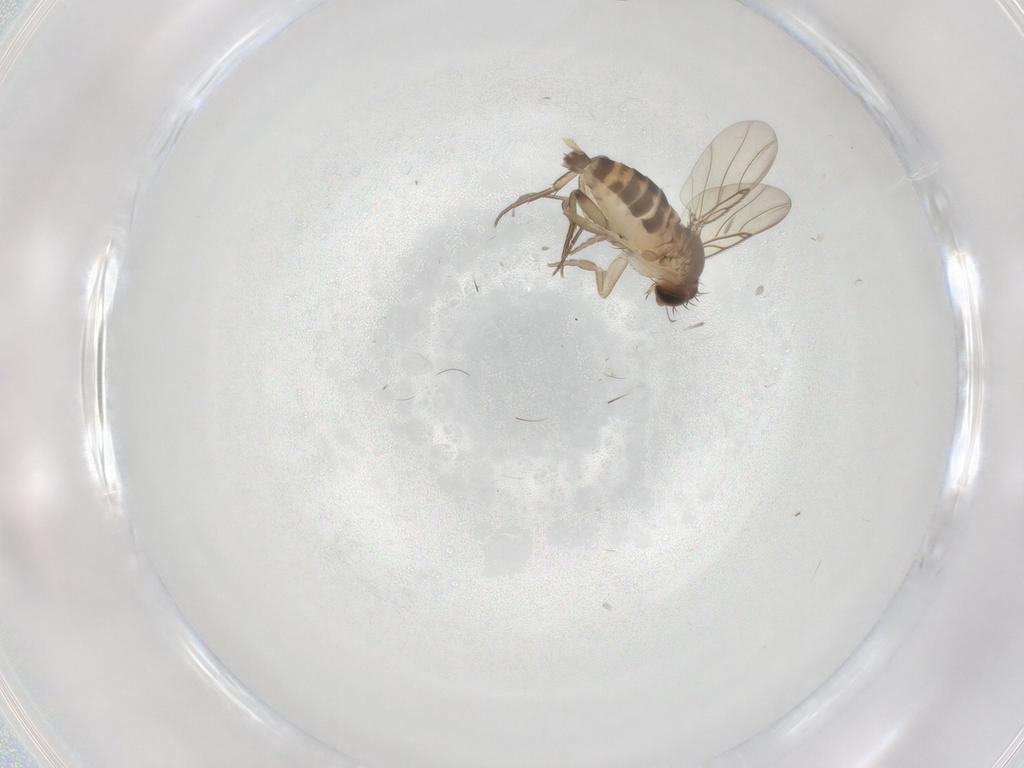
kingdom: Animalia
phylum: Arthropoda
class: Insecta
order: Diptera
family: Phoridae
